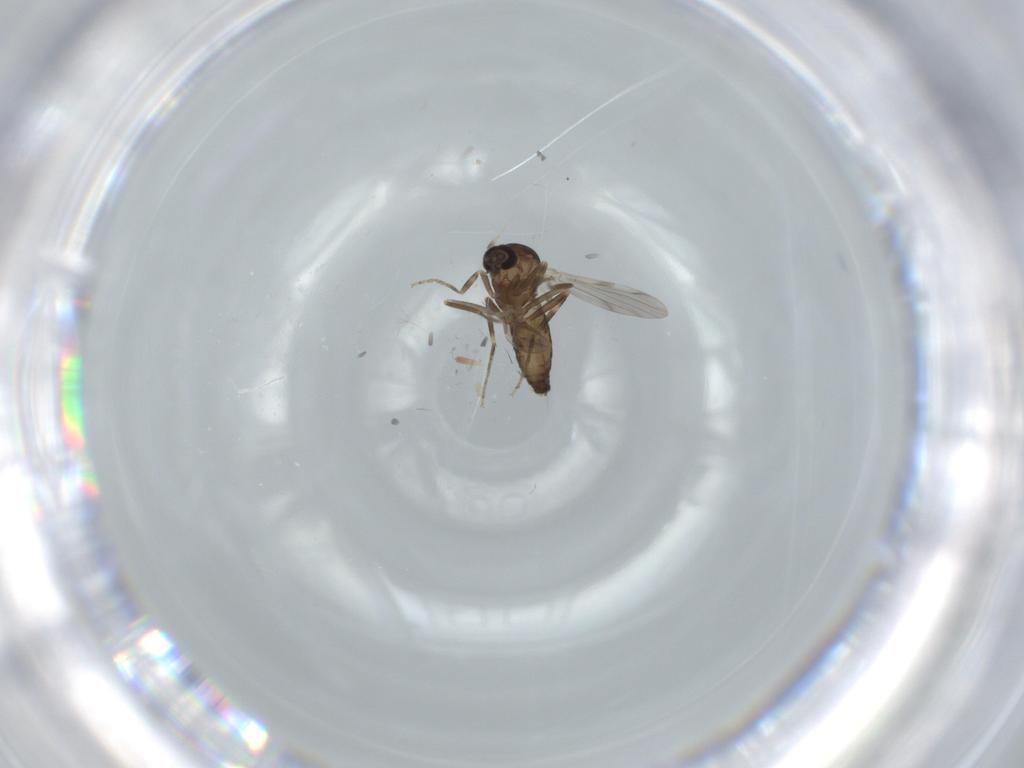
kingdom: Animalia
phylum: Arthropoda
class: Insecta
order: Diptera
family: Ceratopogonidae
